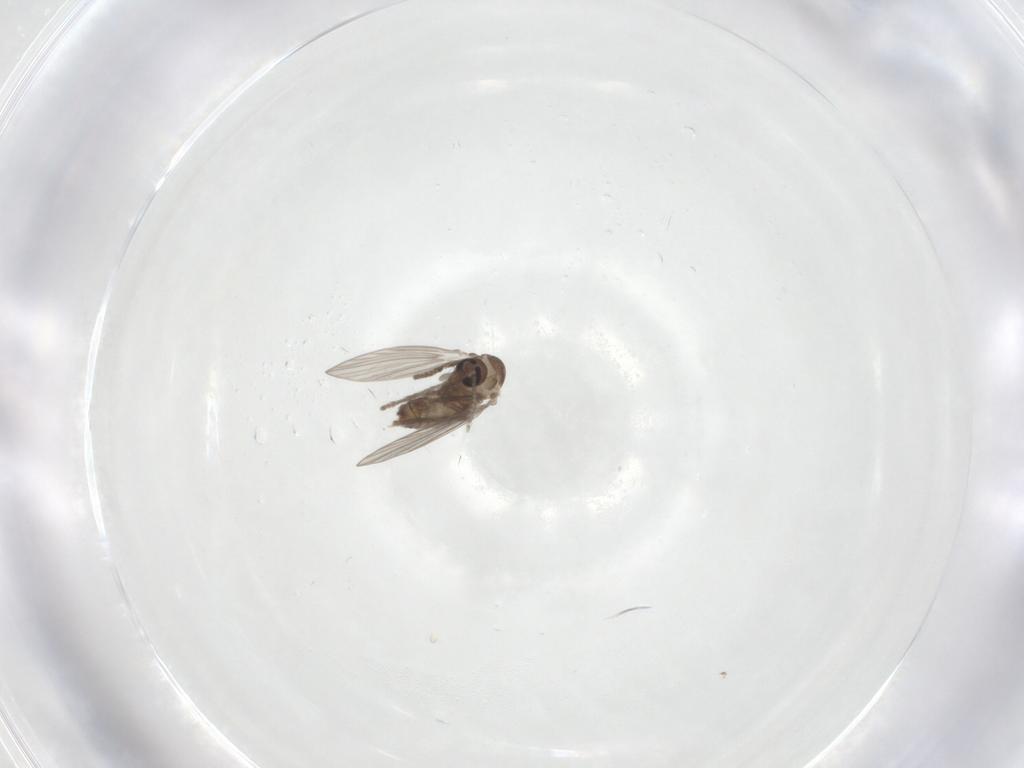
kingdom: Animalia
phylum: Arthropoda
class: Insecta
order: Diptera
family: Psychodidae
